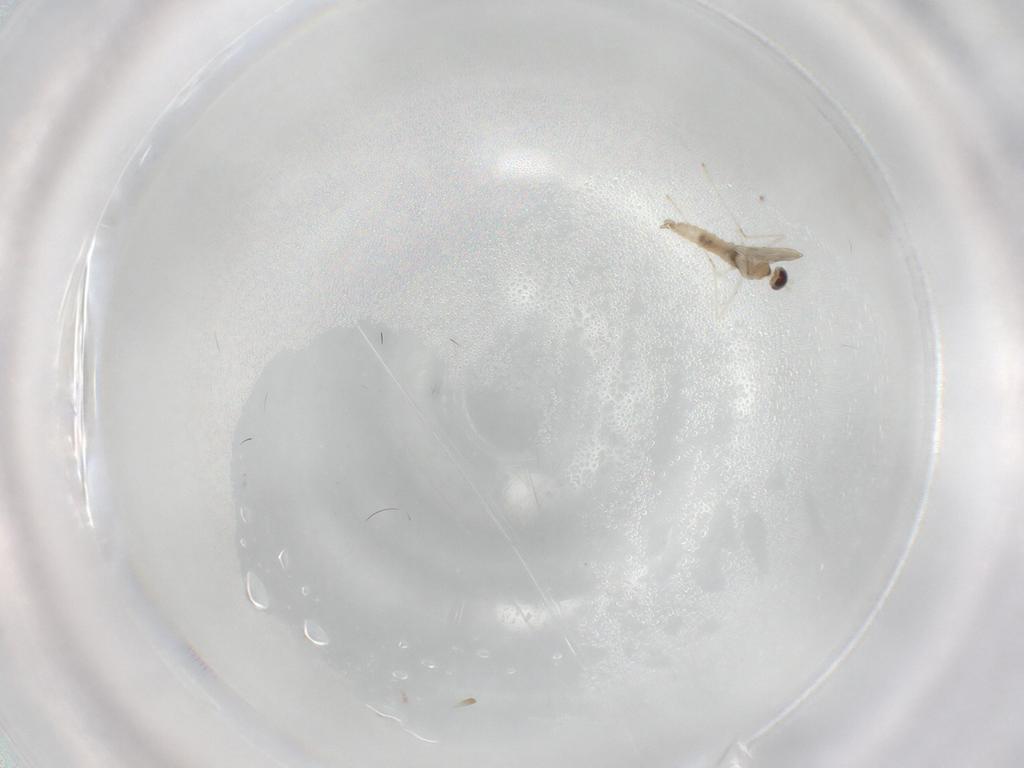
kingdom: Animalia
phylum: Arthropoda
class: Insecta
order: Diptera
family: Cecidomyiidae
